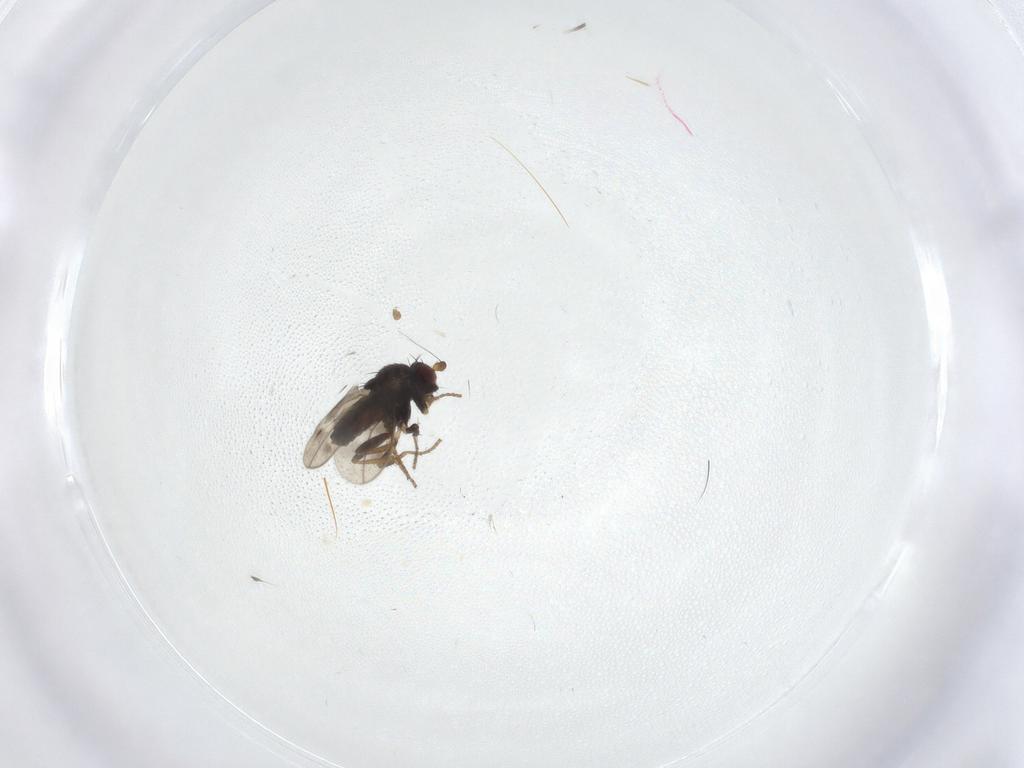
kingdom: Animalia
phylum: Arthropoda
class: Insecta
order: Diptera
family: Sphaeroceridae
